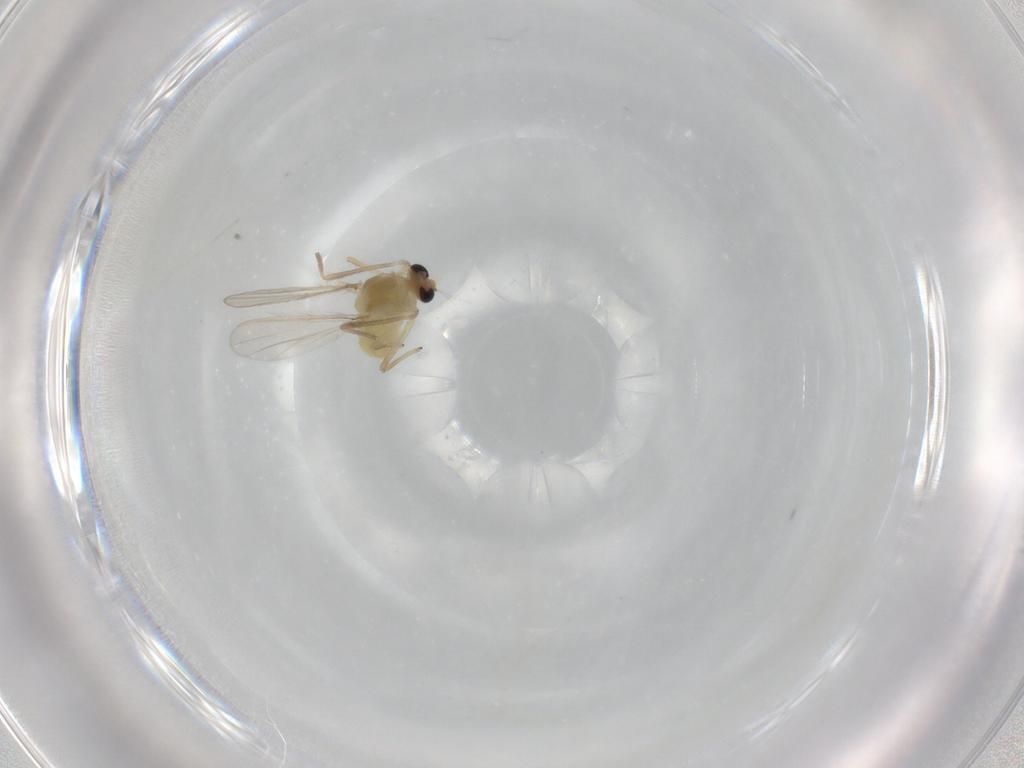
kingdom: Animalia
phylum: Arthropoda
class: Insecta
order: Diptera
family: Chironomidae
